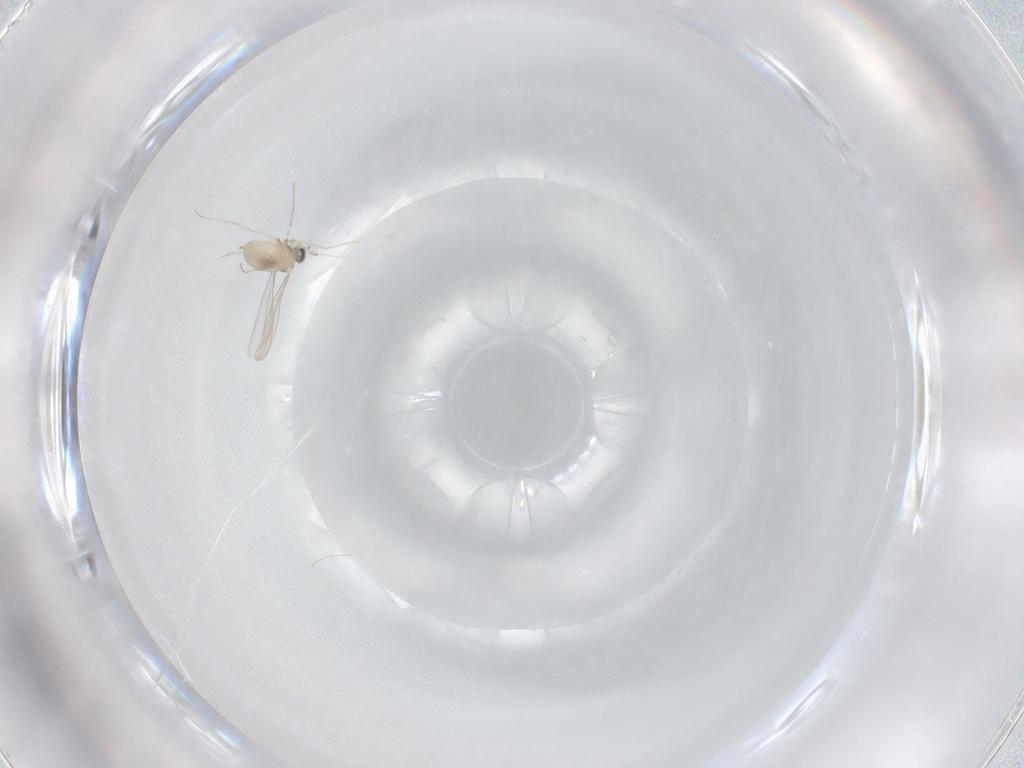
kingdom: Animalia
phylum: Arthropoda
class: Insecta
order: Diptera
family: Cecidomyiidae
